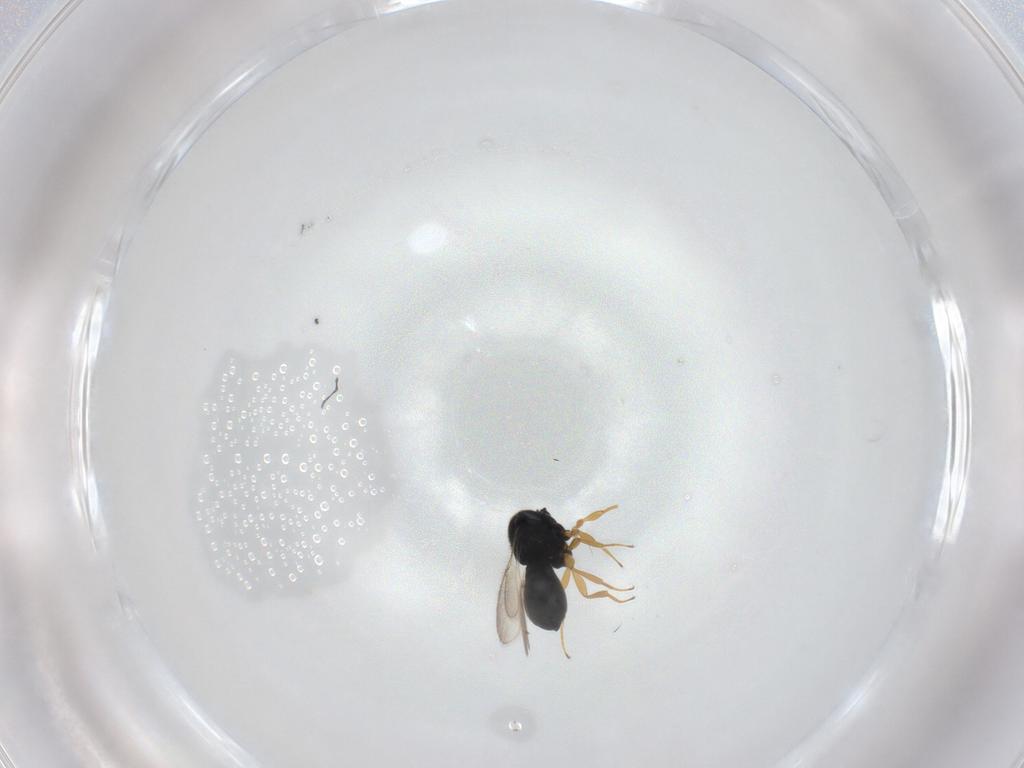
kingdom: Animalia
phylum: Arthropoda
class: Insecta
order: Hymenoptera
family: Scelionidae
